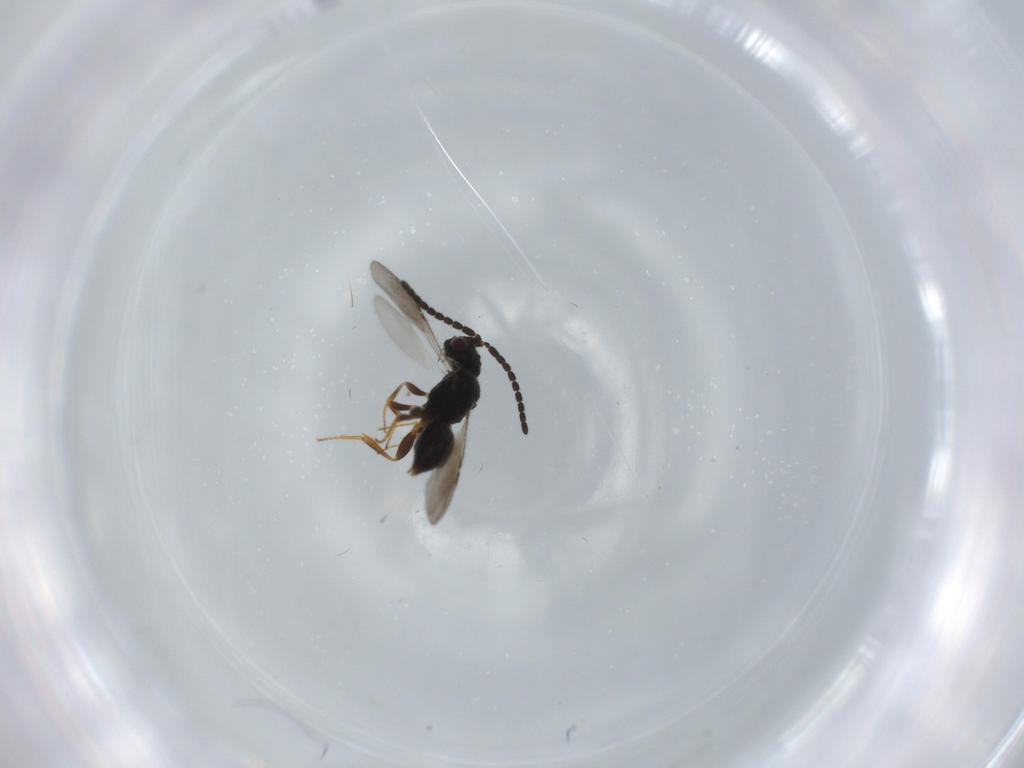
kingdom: Animalia
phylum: Arthropoda
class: Insecta
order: Hymenoptera
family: Ceraphronidae
